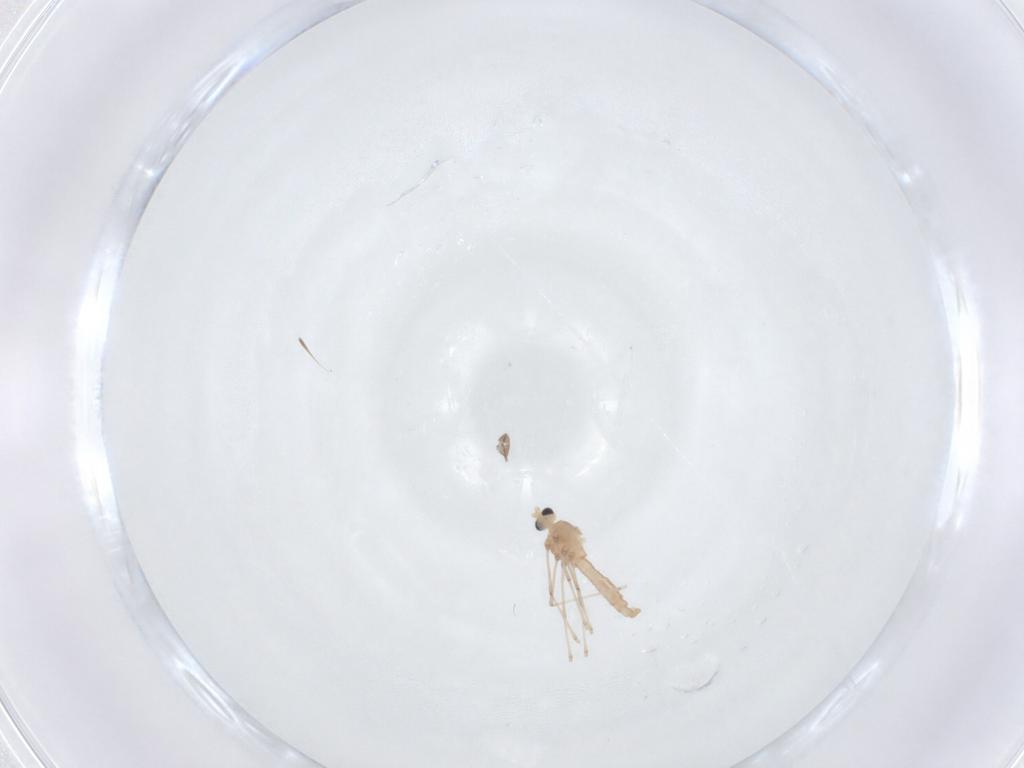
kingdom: Animalia
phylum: Arthropoda
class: Insecta
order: Diptera
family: Sciaridae
